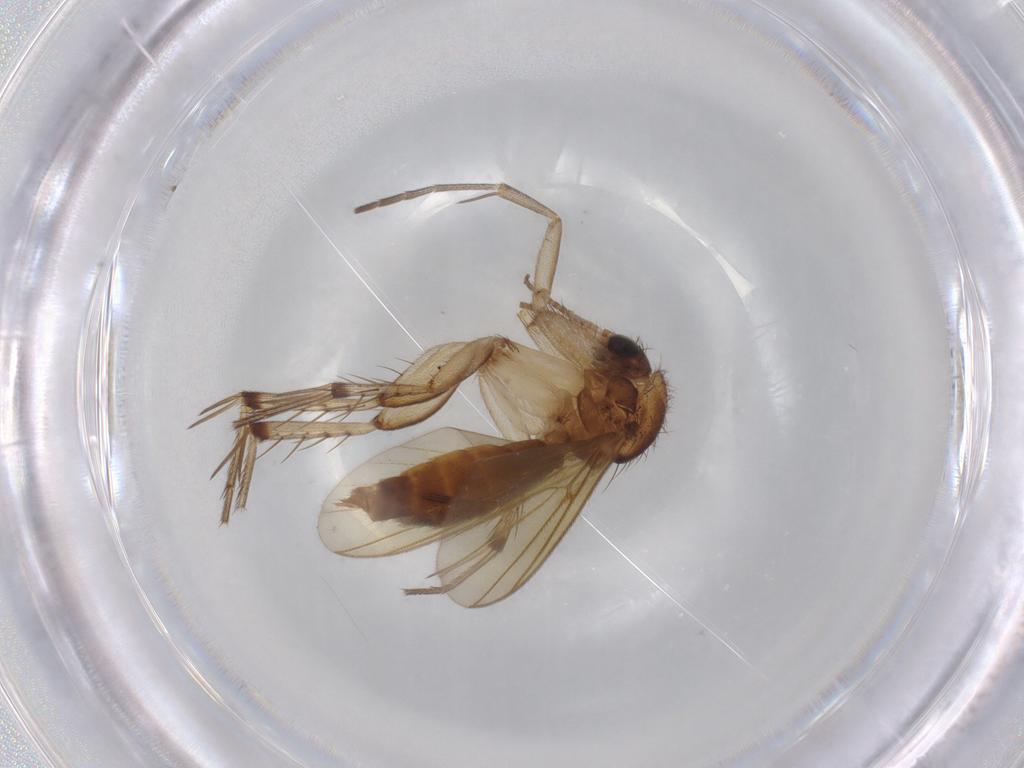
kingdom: Animalia
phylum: Arthropoda
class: Insecta
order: Diptera
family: Mycetophilidae
